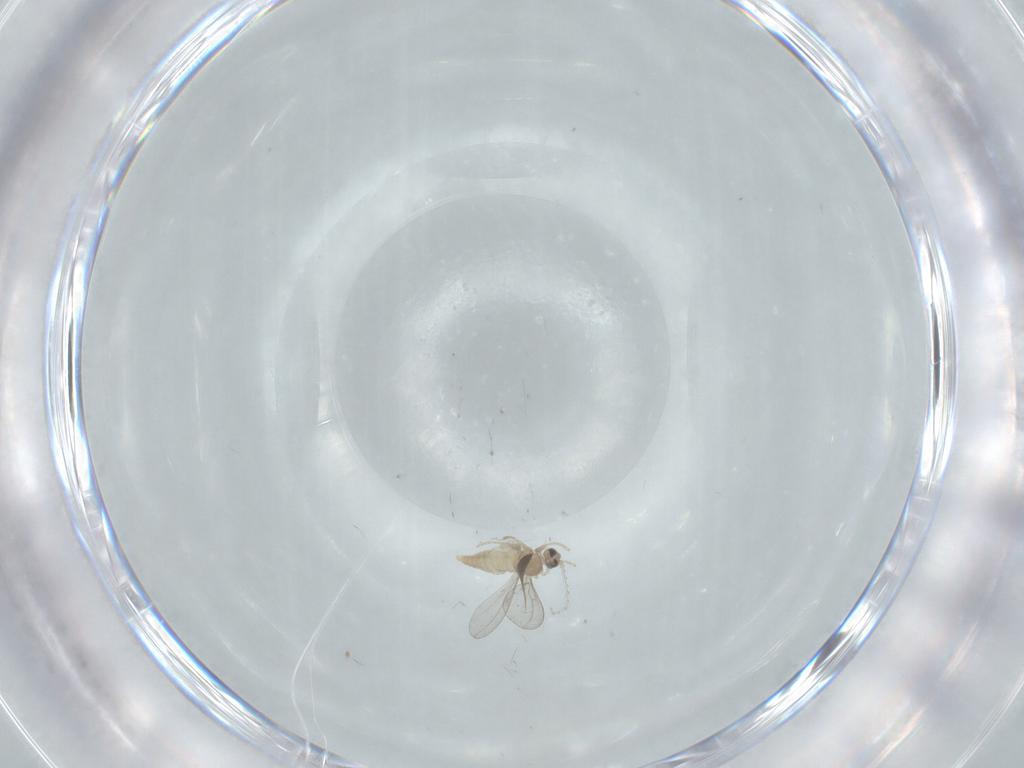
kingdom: Animalia
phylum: Arthropoda
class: Insecta
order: Diptera
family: Cecidomyiidae
